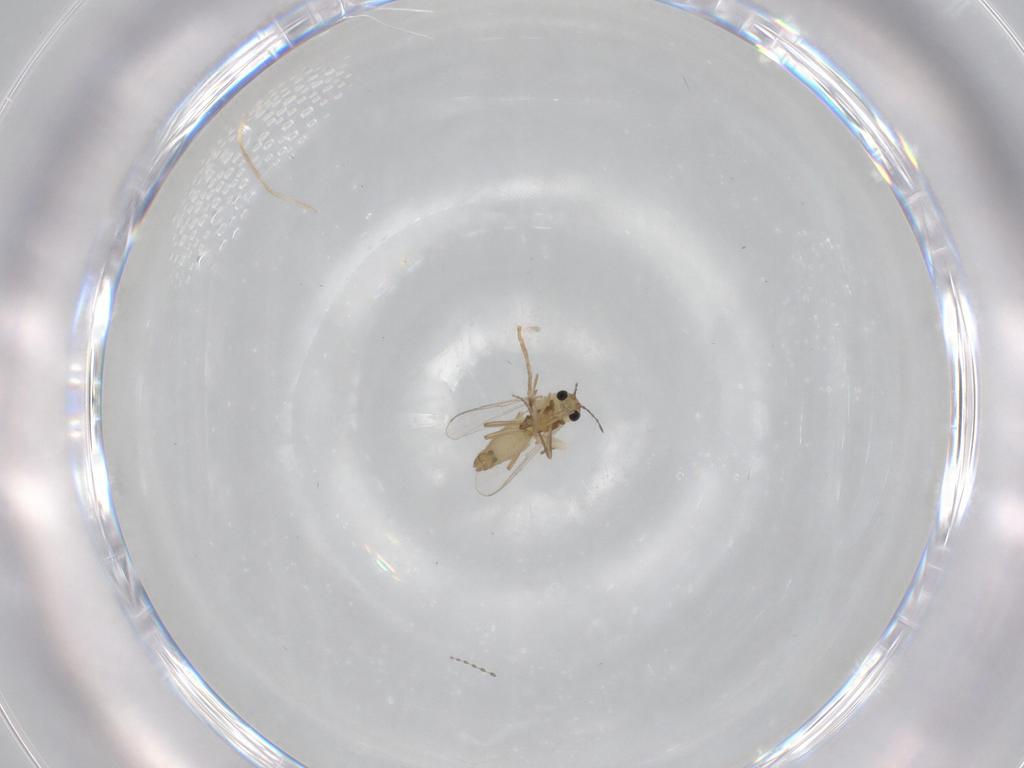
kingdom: Animalia
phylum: Arthropoda
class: Insecta
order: Diptera
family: Chironomidae
